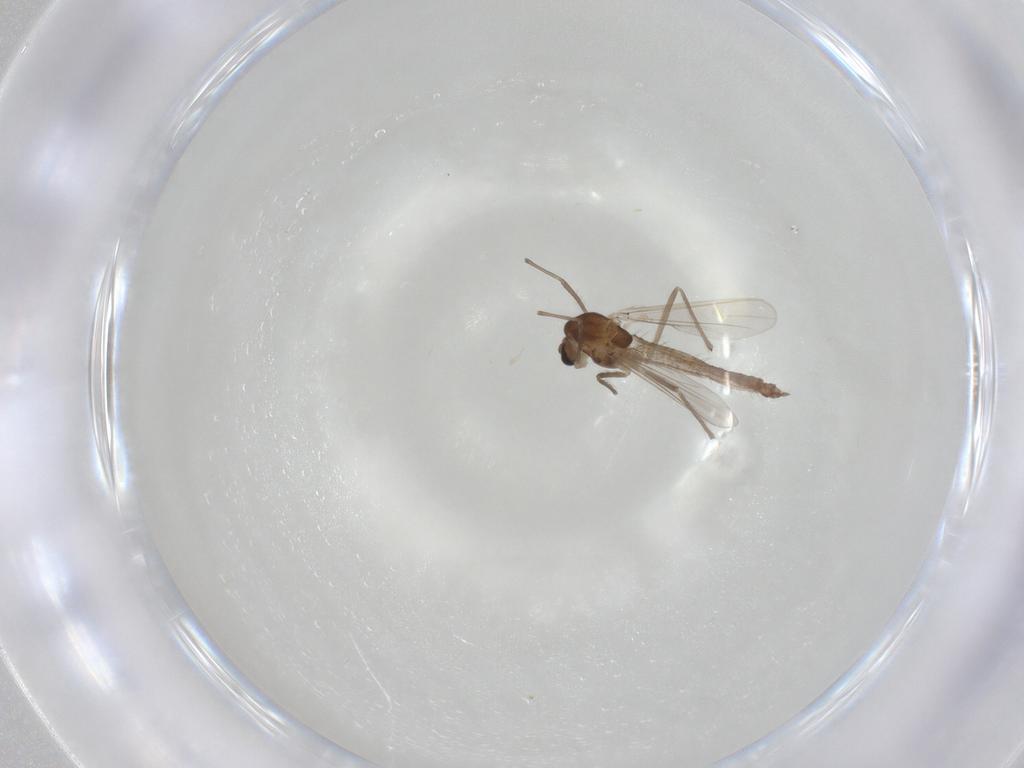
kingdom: Animalia
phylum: Arthropoda
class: Insecta
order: Diptera
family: Chironomidae
